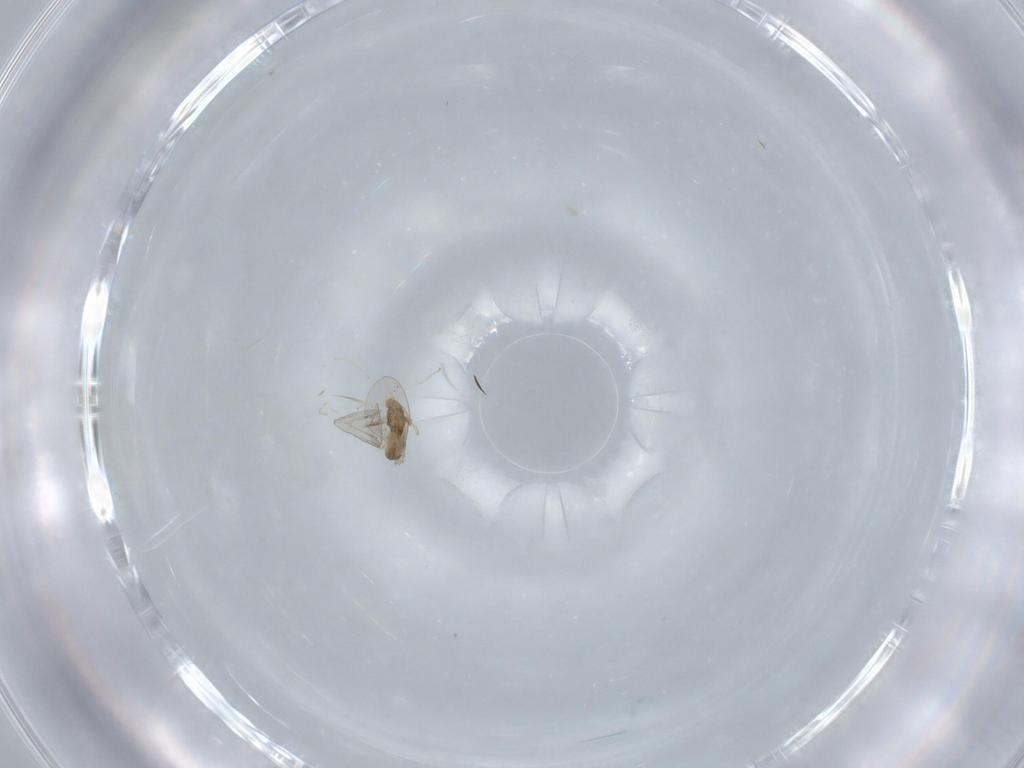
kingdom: Animalia
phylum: Arthropoda
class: Insecta
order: Diptera
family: Cecidomyiidae
